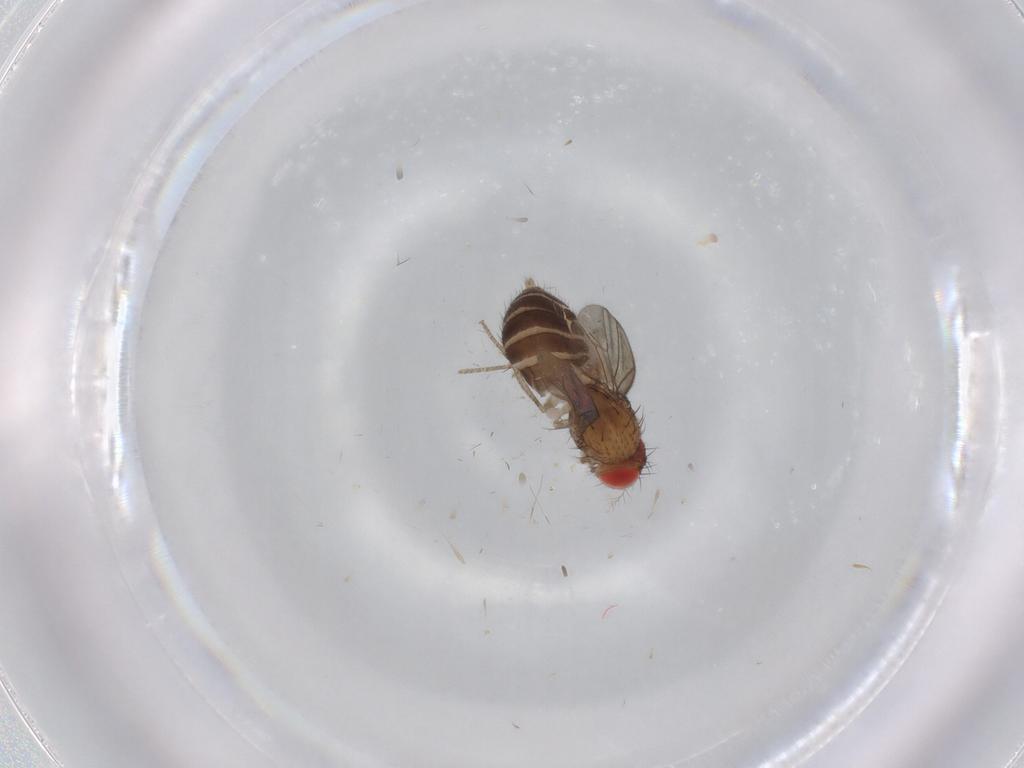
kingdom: Animalia
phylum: Arthropoda
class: Insecta
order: Diptera
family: Drosophilidae
